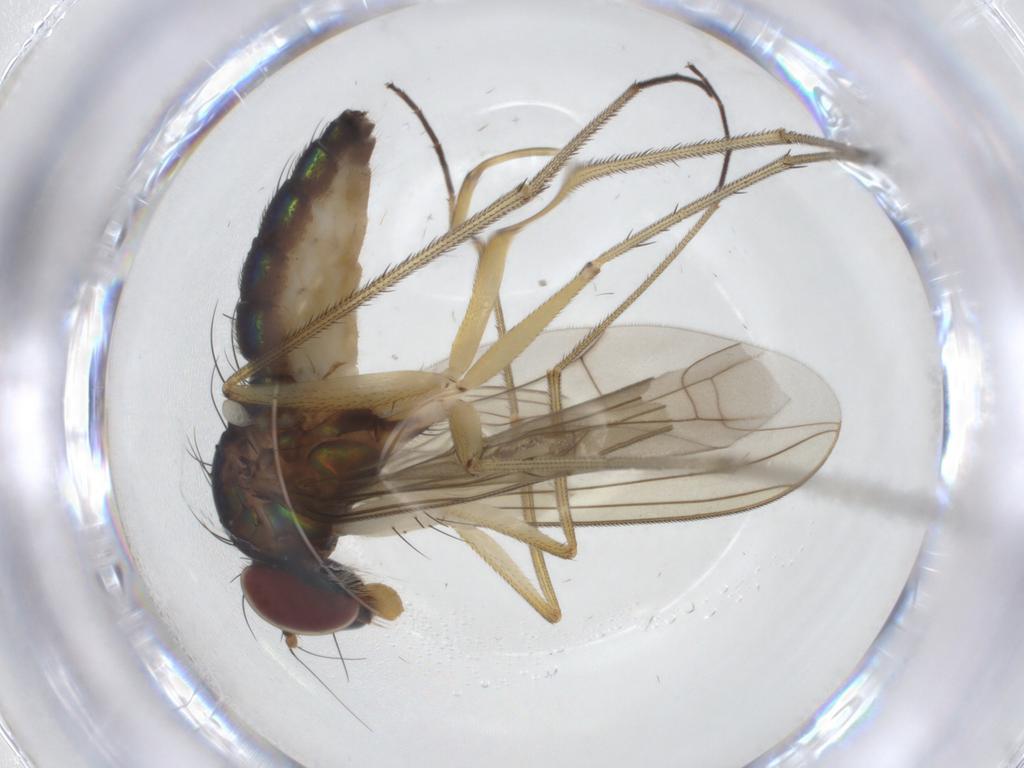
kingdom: Animalia
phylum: Arthropoda
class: Insecta
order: Diptera
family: Dolichopodidae
